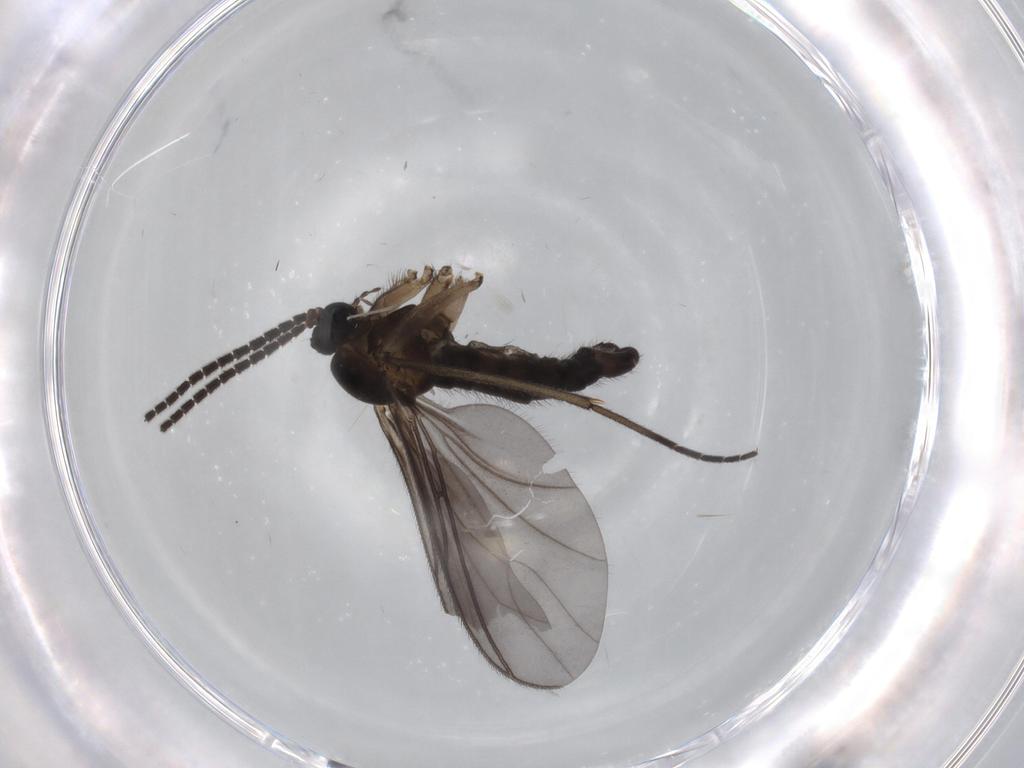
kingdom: Animalia
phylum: Arthropoda
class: Insecta
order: Diptera
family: Sciaridae
